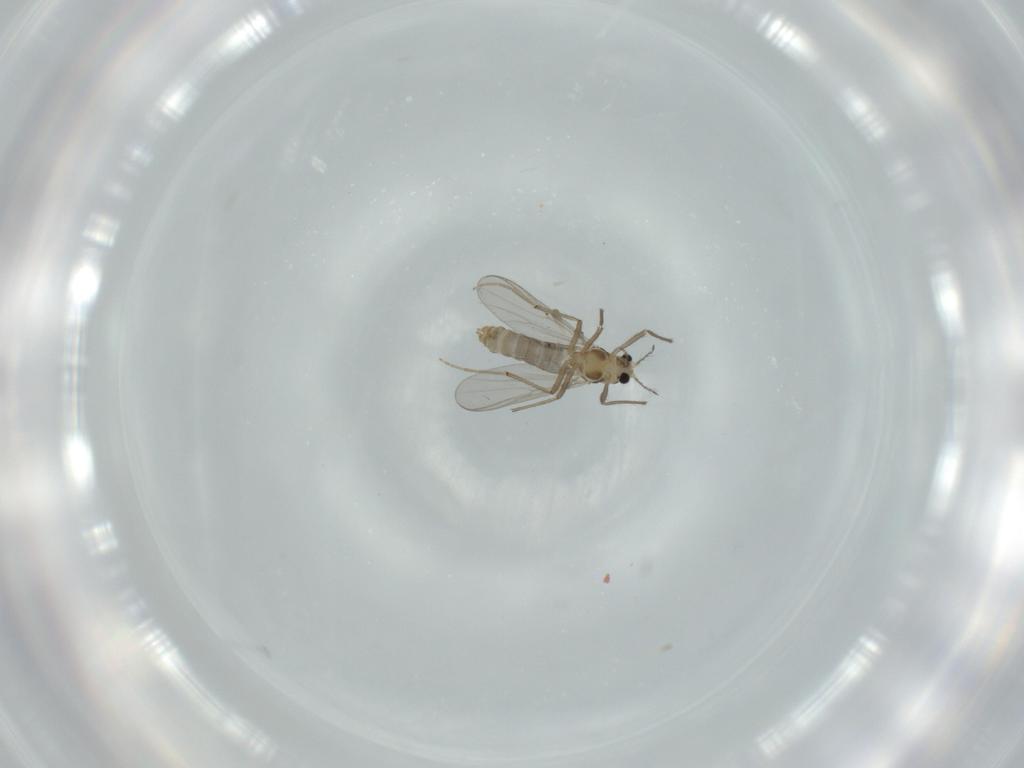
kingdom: Animalia
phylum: Arthropoda
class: Insecta
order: Diptera
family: Chironomidae
